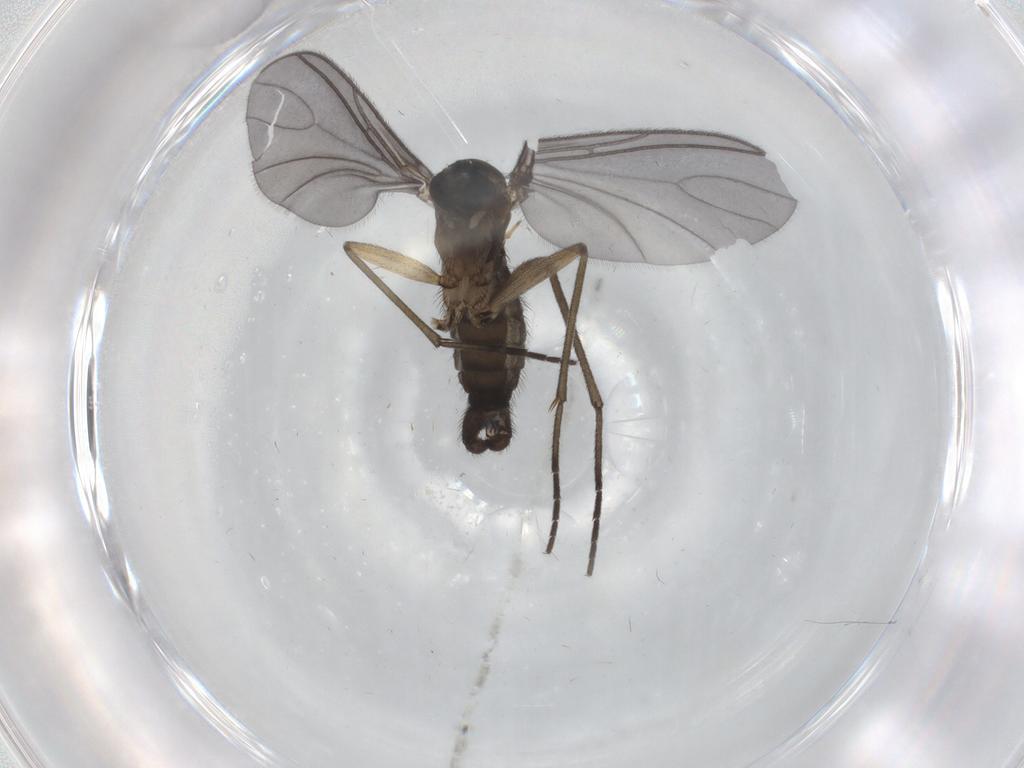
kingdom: Animalia
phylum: Arthropoda
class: Insecta
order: Diptera
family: Sciaridae
